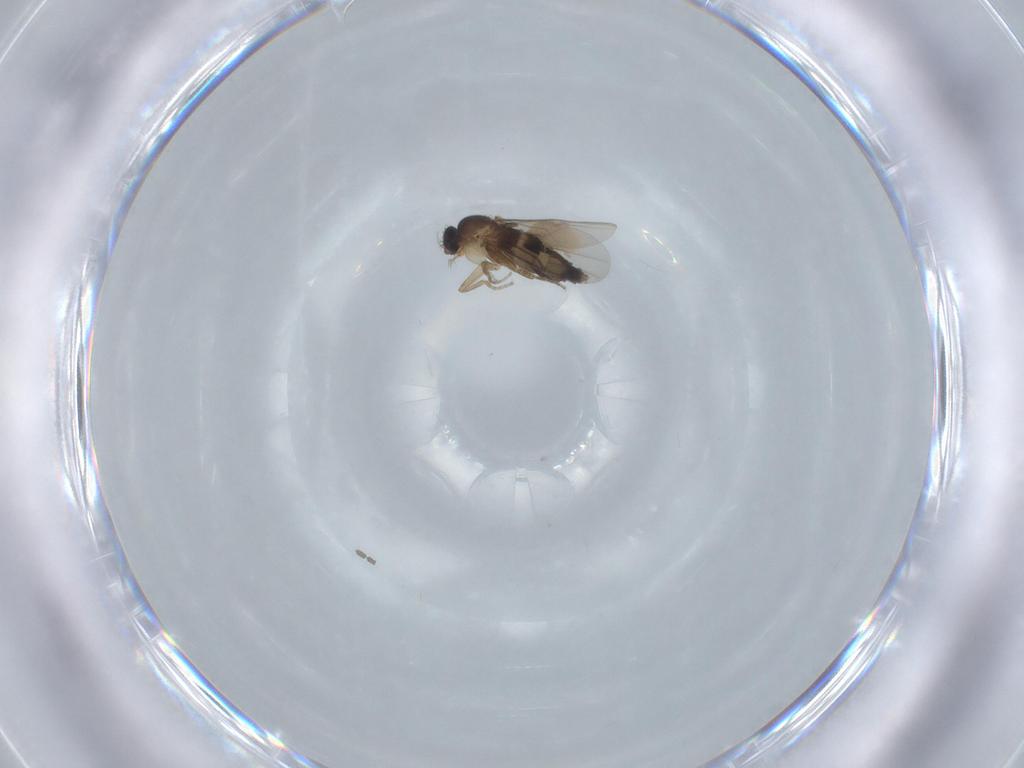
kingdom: Animalia
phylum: Arthropoda
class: Insecta
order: Diptera
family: Phoridae
